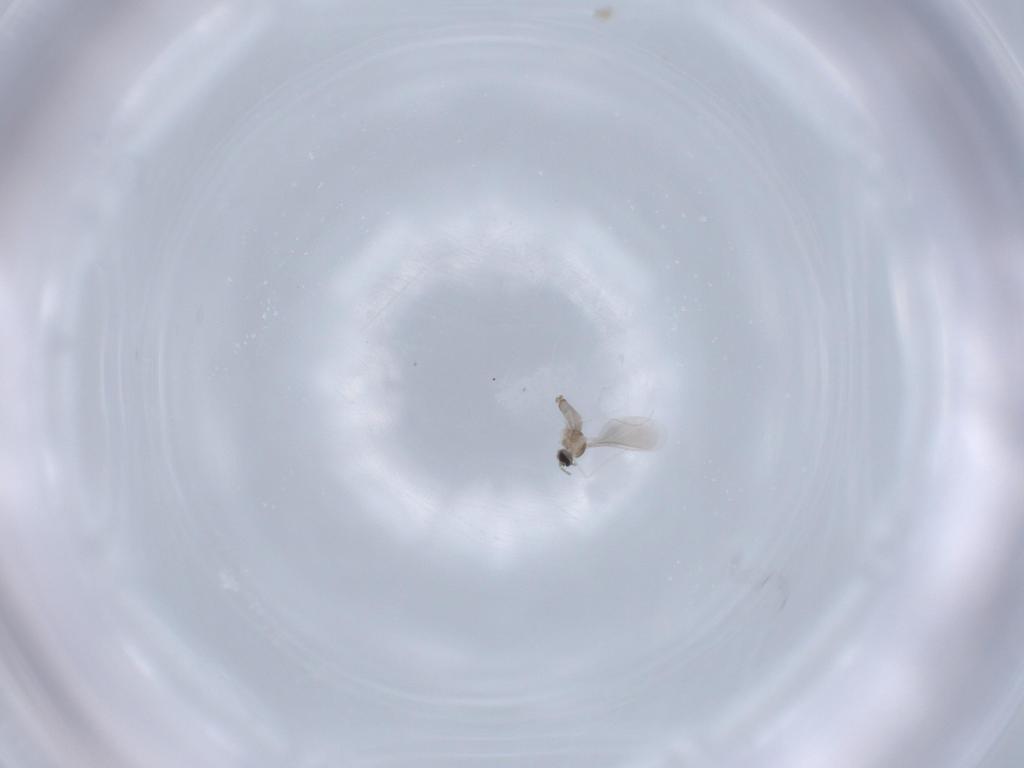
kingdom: Animalia
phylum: Arthropoda
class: Insecta
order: Diptera
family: Cecidomyiidae
